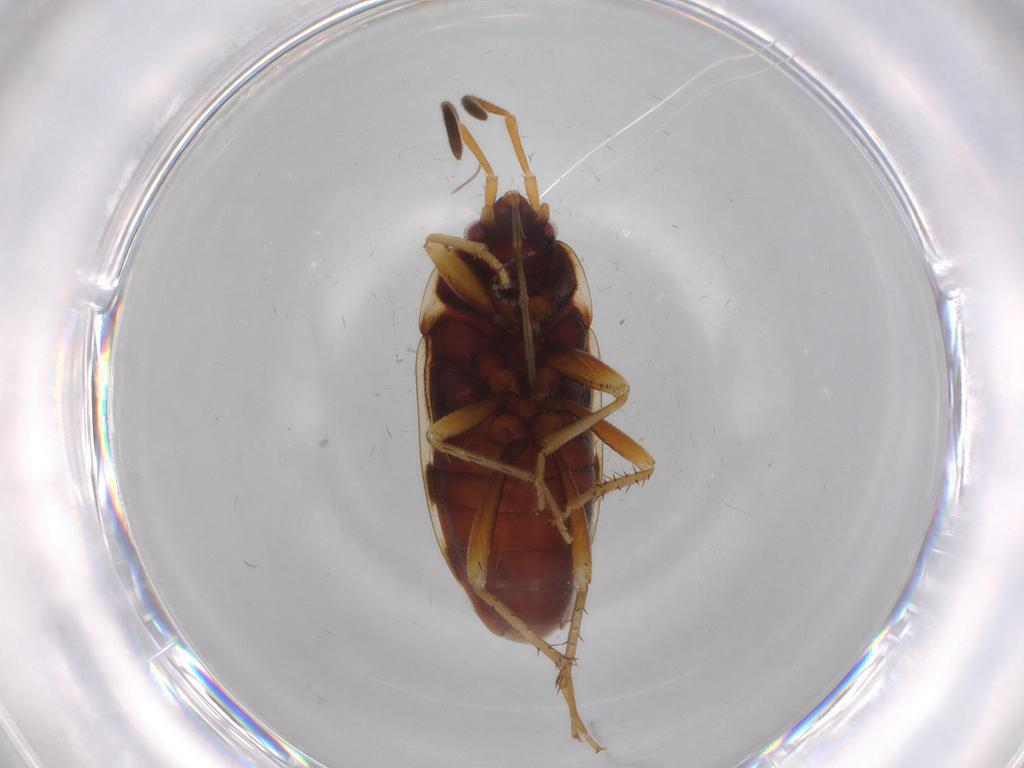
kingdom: Animalia
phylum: Arthropoda
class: Insecta
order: Hemiptera
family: Rhyparochromidae
